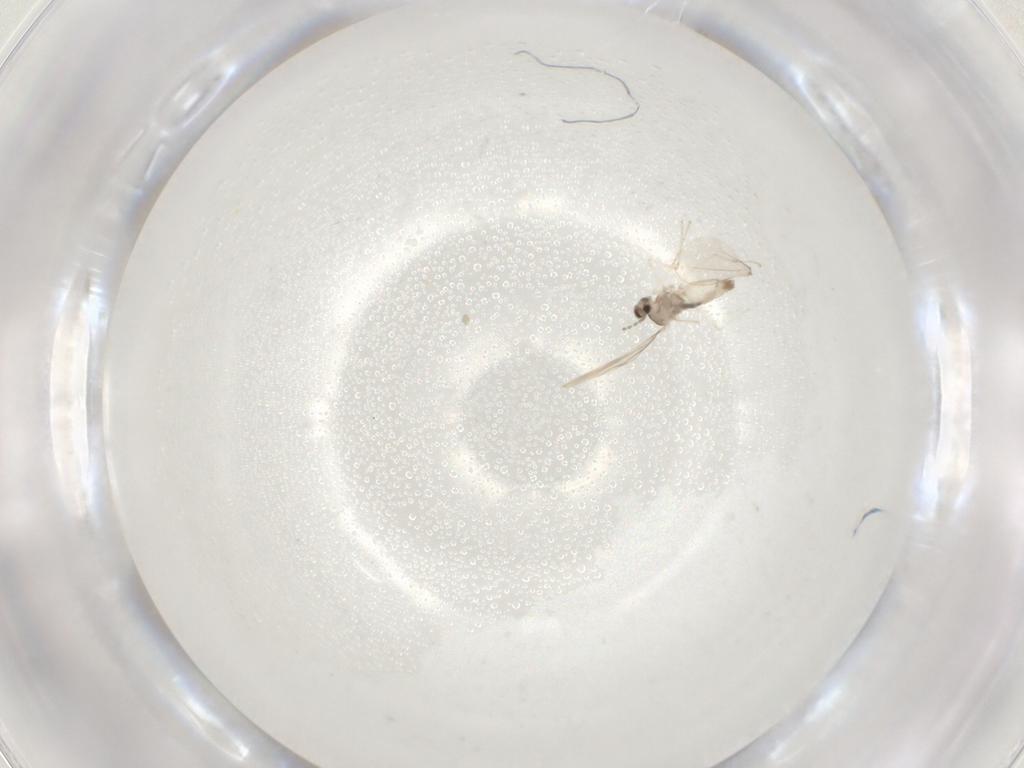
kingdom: Animalia
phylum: Arthropoda
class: Insecta
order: Diptera
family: Cecidomyiidae
